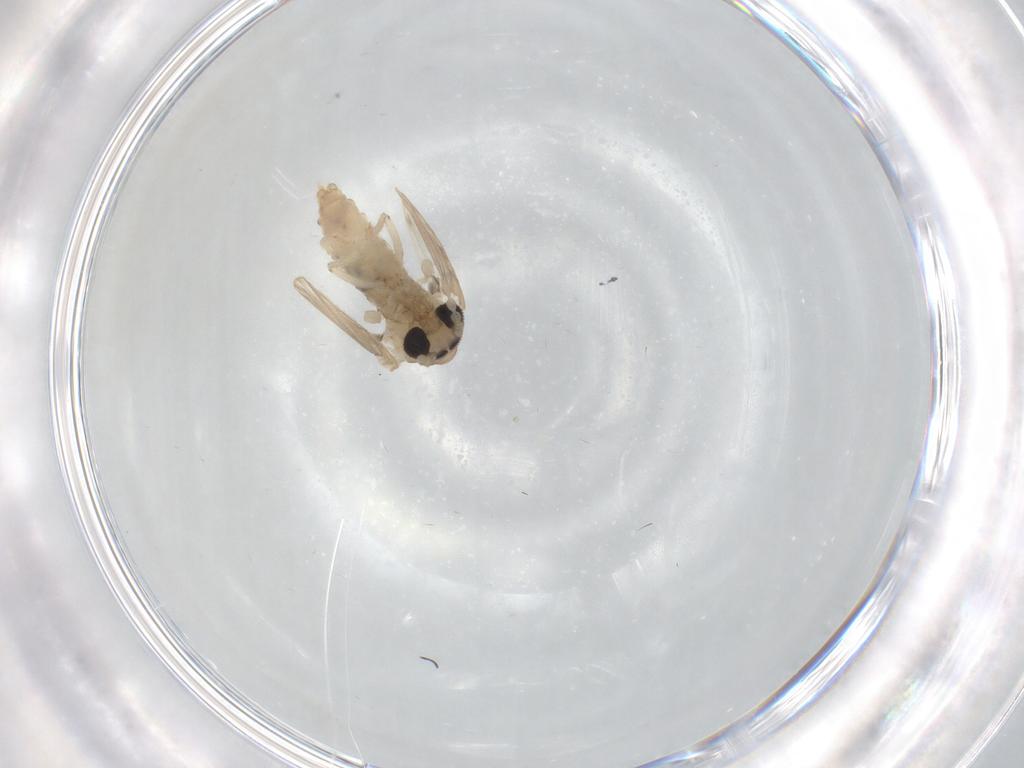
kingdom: Animalia
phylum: Arthropoda
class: Insecta
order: Diptera
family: Psychodidae
